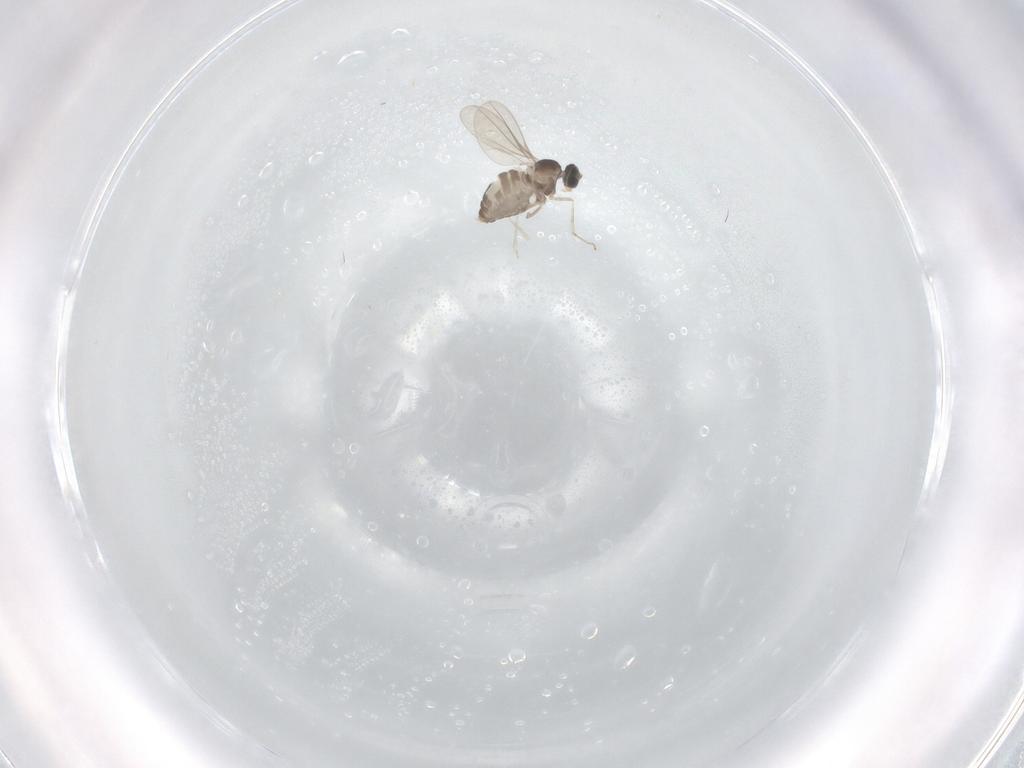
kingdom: Animalia
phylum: Arthropoda
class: Insecta
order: Diptera
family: Cecidomyiidae
